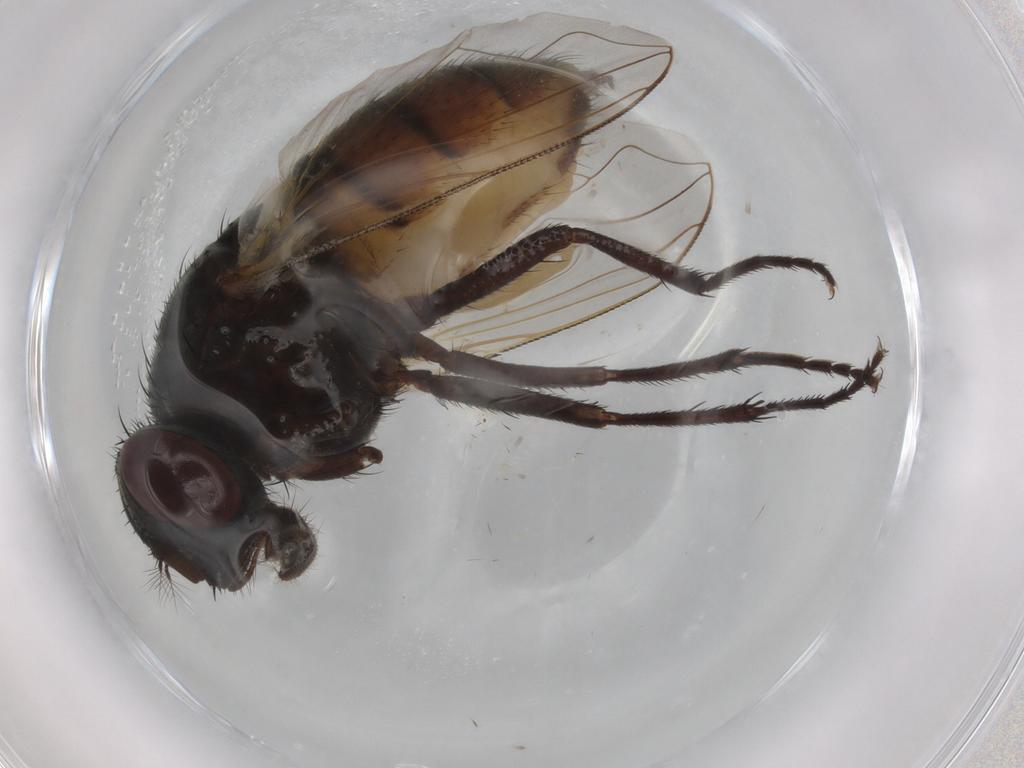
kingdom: Animalia
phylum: Arthropoda
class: Insecta
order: Diptera
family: Muscidae
